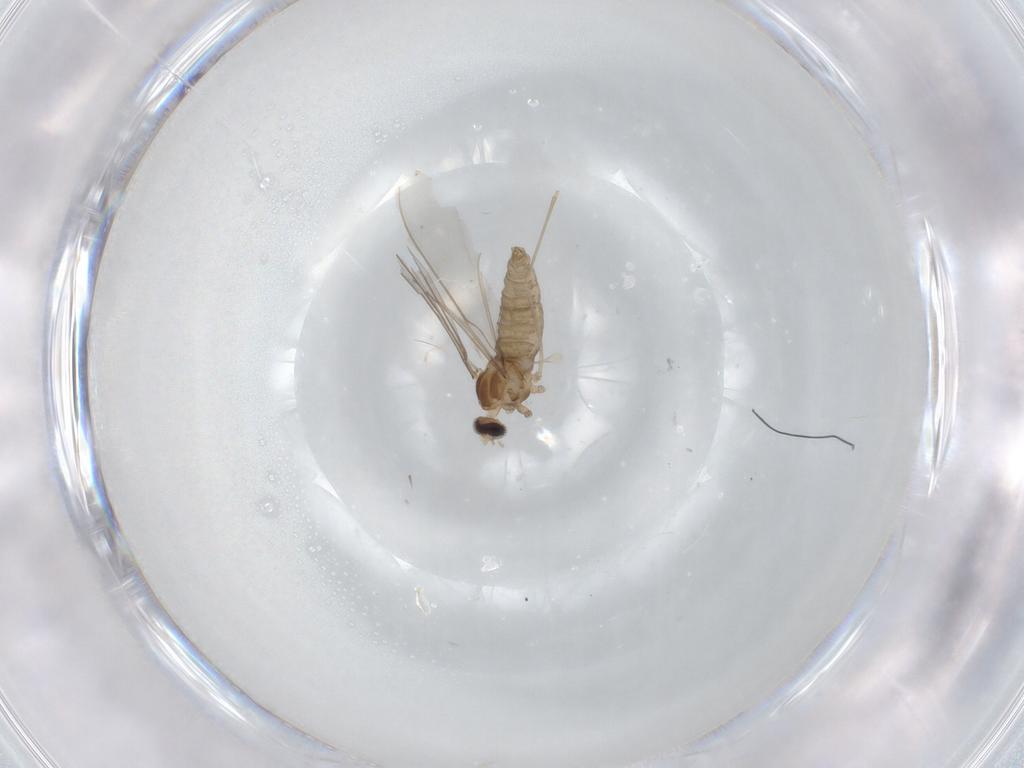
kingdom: Animalia
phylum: Arthropoda
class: Insecta
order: Diptera
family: Cecidomyiidae
